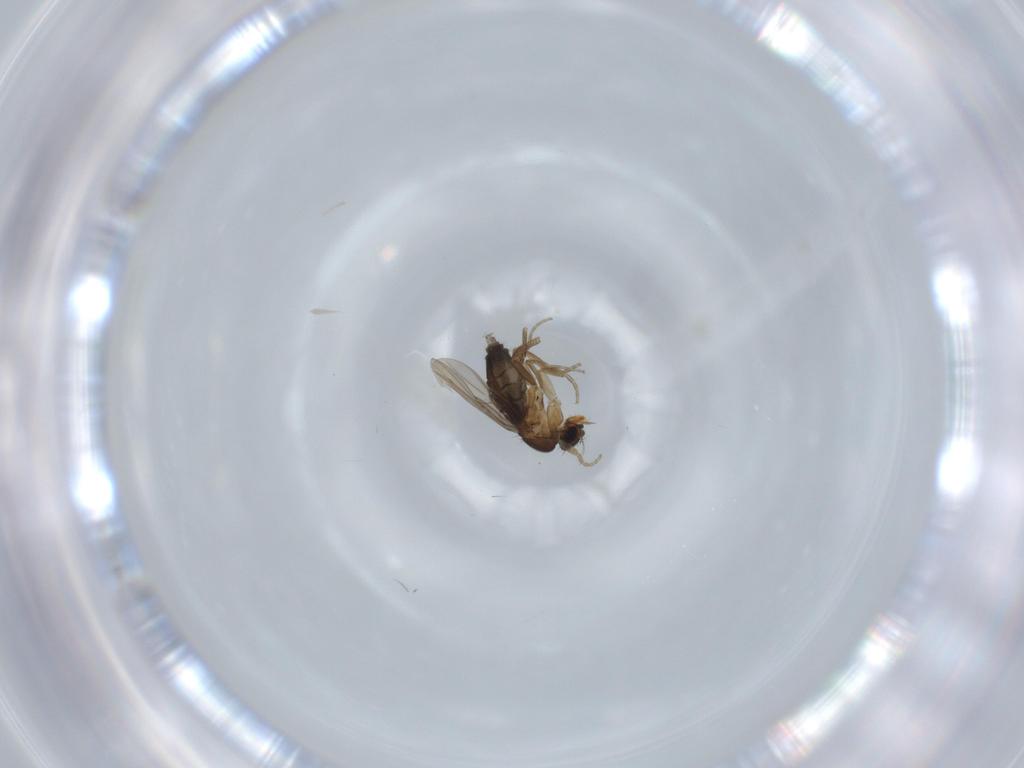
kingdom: Animalia
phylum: Arthropoda
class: Insecta
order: Diptera
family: Phoridae
